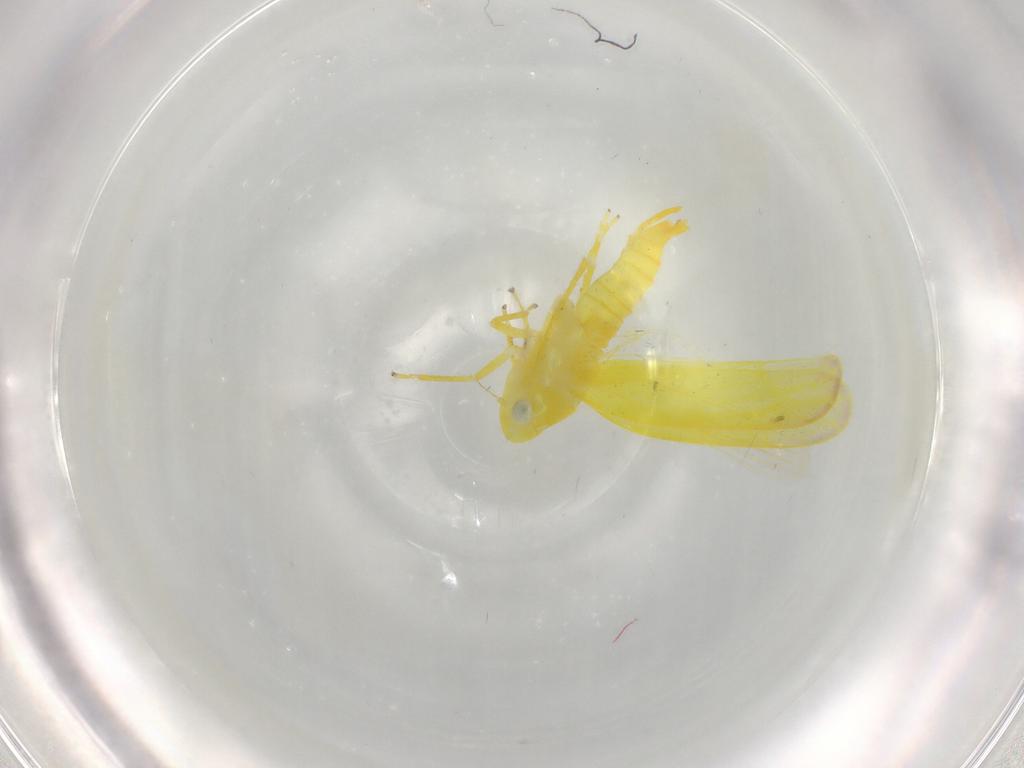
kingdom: Animalia
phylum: Arthropoda
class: Insecta
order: Hemiptera
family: Cicadellidae
